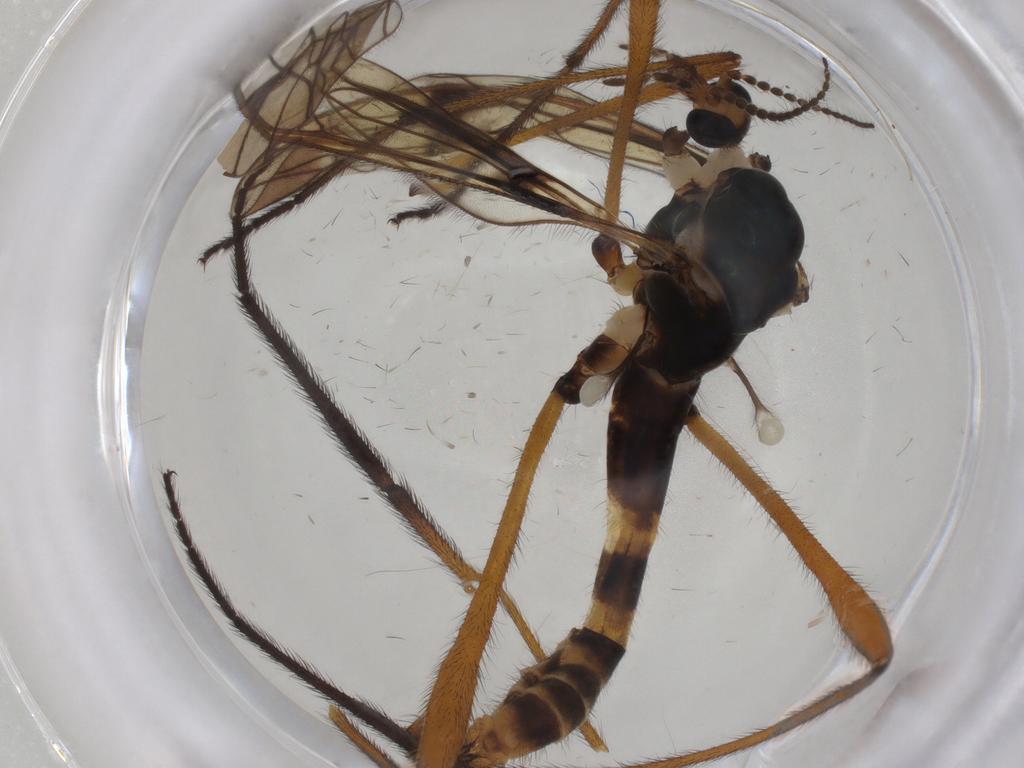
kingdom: Animalia
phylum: Arthropoda
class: Insecta
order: Diptera
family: Limoniidae
